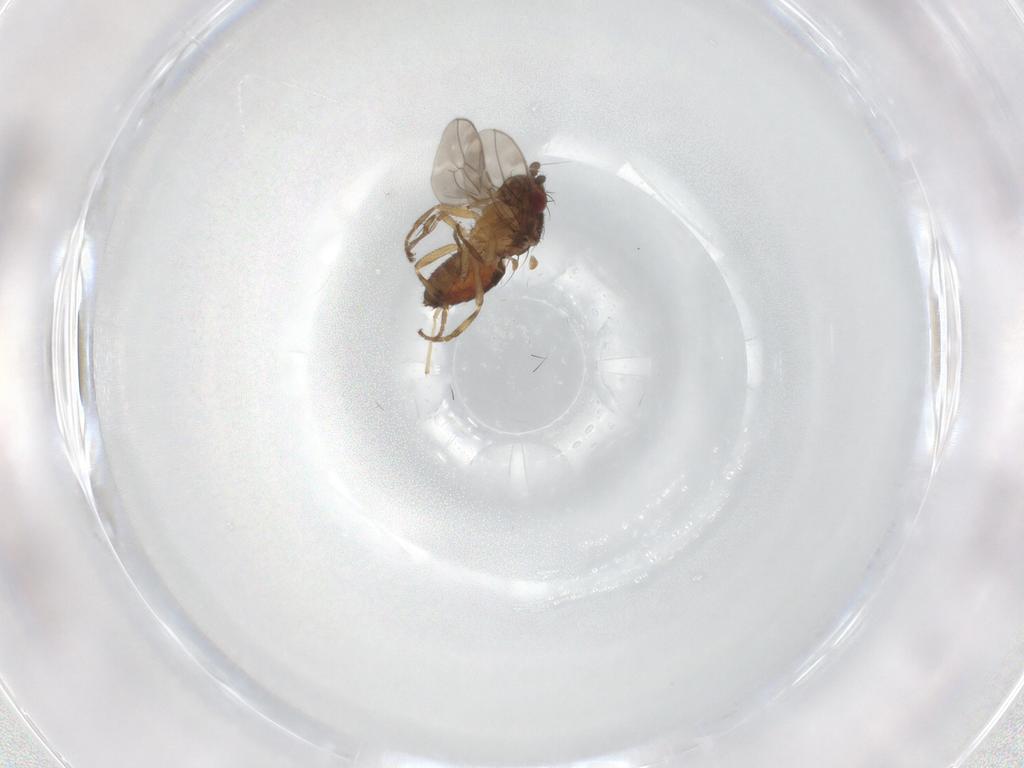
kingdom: Animalia
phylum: Arthropoda
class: Insecta
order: Diptera
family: Sphaeroceridae
